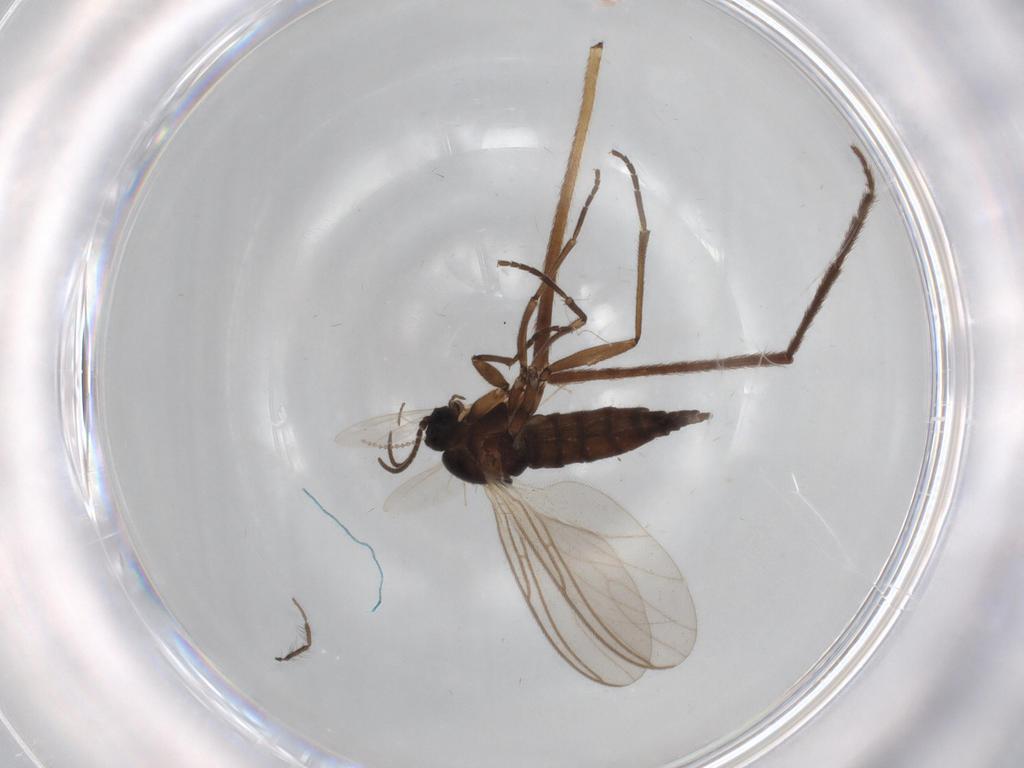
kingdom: Animalia
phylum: Arthropoda
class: Insecta
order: Diptera
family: Sciaridae
